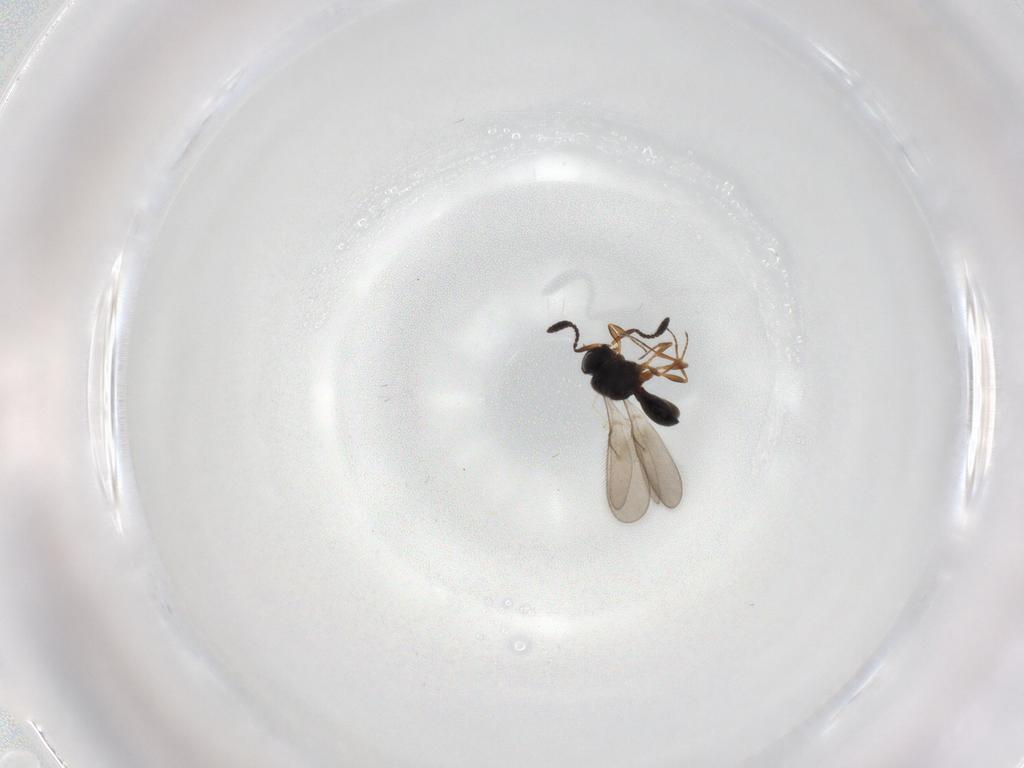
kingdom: Animalia
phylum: Arthropoda
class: Insecta
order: Hymenoptera
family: Scelionidae
